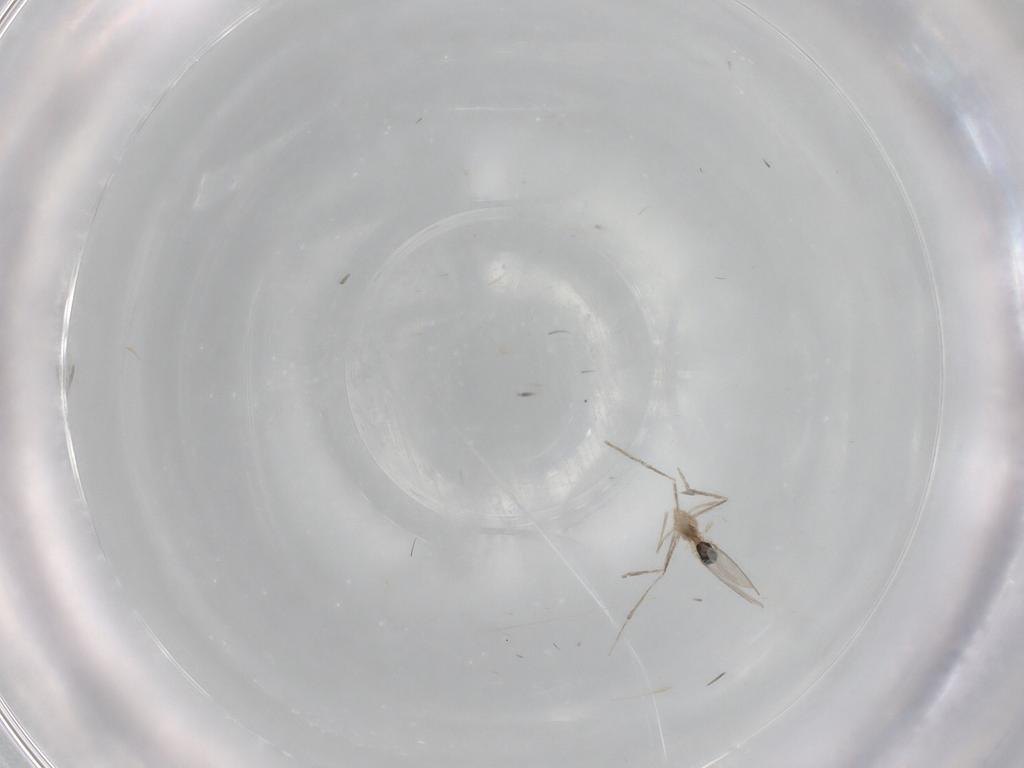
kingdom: Animalia
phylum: Arthropoda
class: Insecta
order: Diptera
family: Cecidomyiidae
